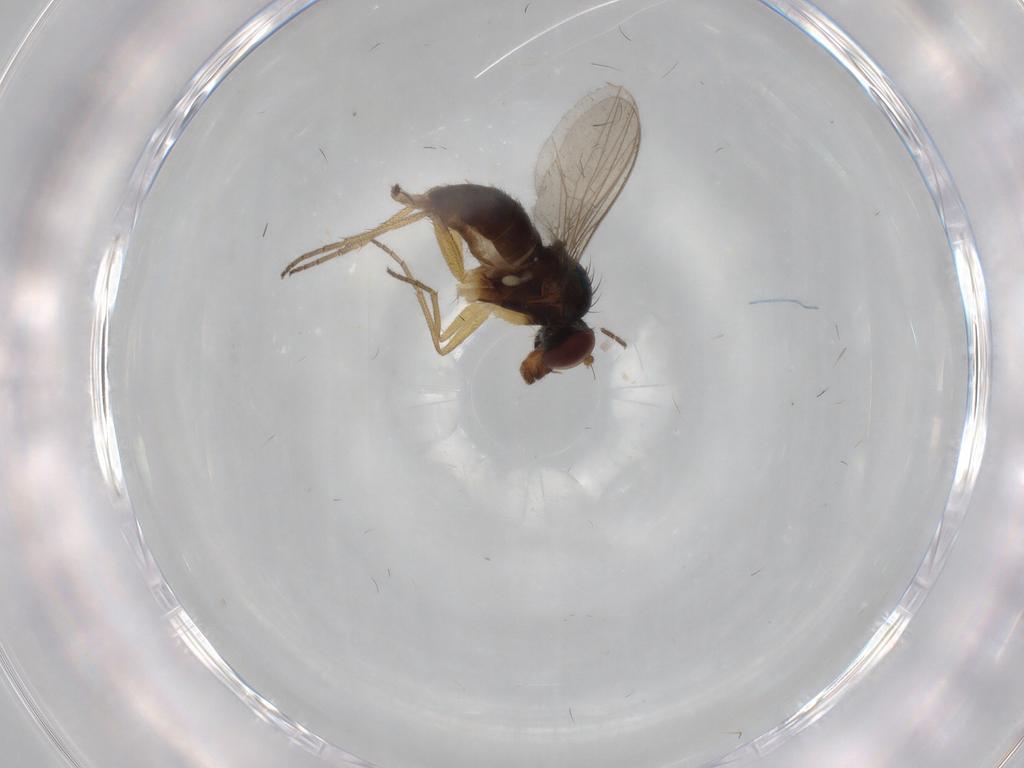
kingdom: Animalia
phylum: Arthropoda
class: Insecta
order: Diptera
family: Dolichopodidae
